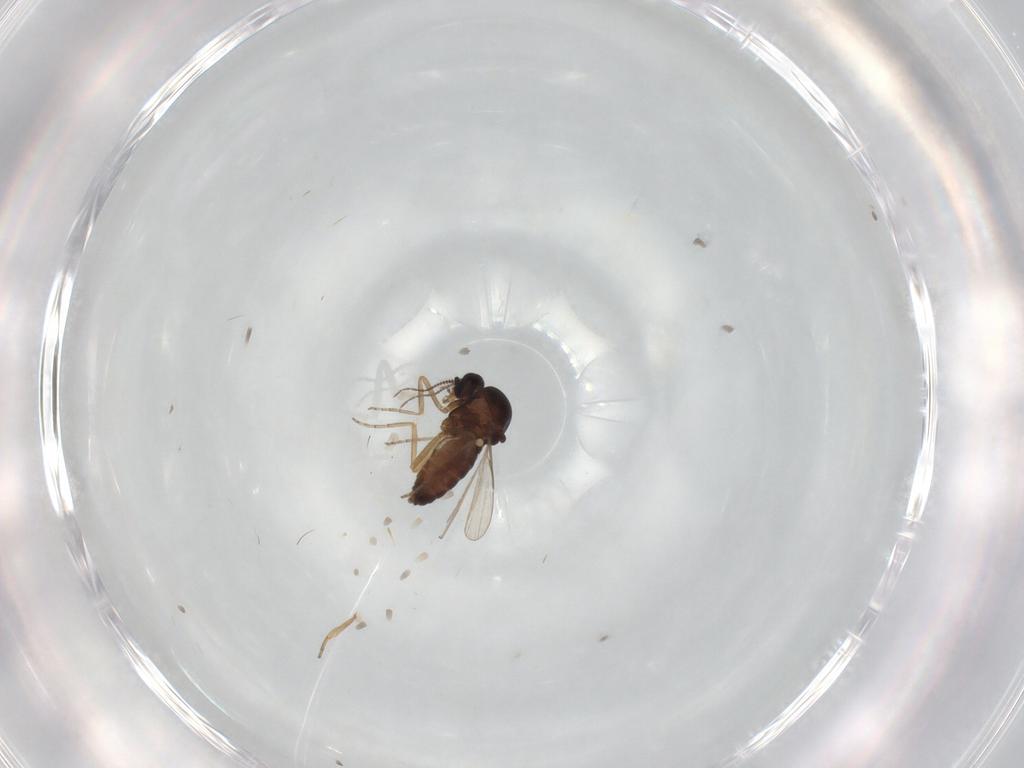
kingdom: Animalia
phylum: Arthropoda
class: Insecta
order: Diptera
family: Ceratopogonidae
